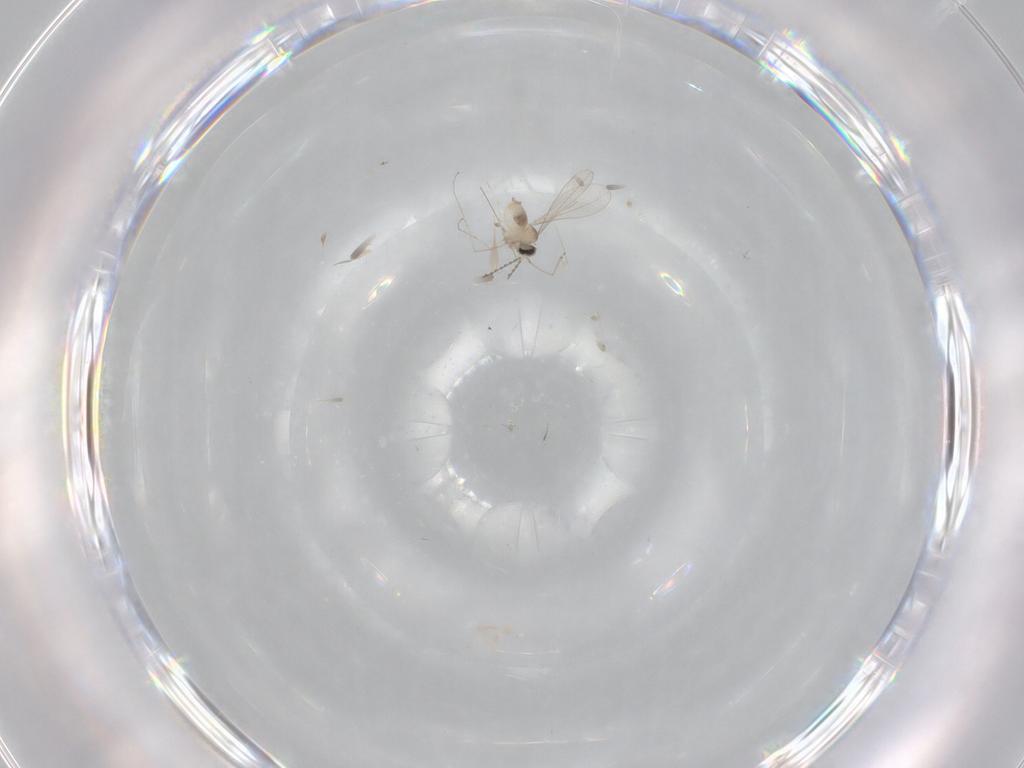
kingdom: Animalia
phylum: Arthropoda
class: Insecta
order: Diptera
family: Cecidomyiidae
